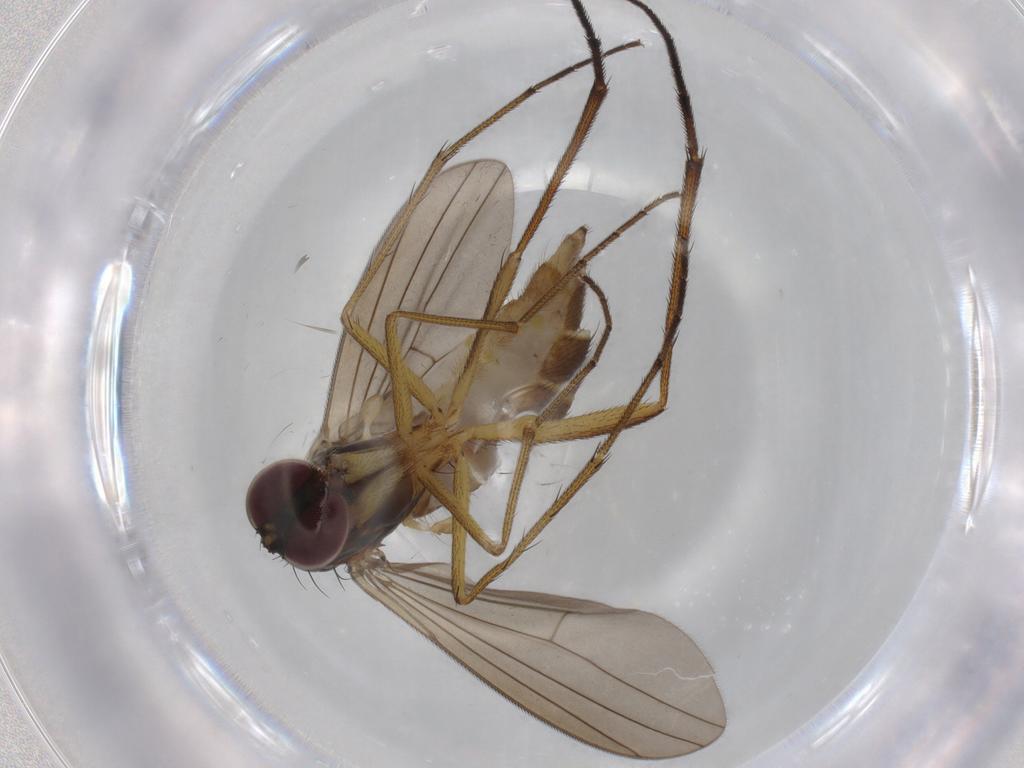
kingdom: Animalia
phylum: Arthropoda
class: Insecta
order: Diptera
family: Dolichopodidae
